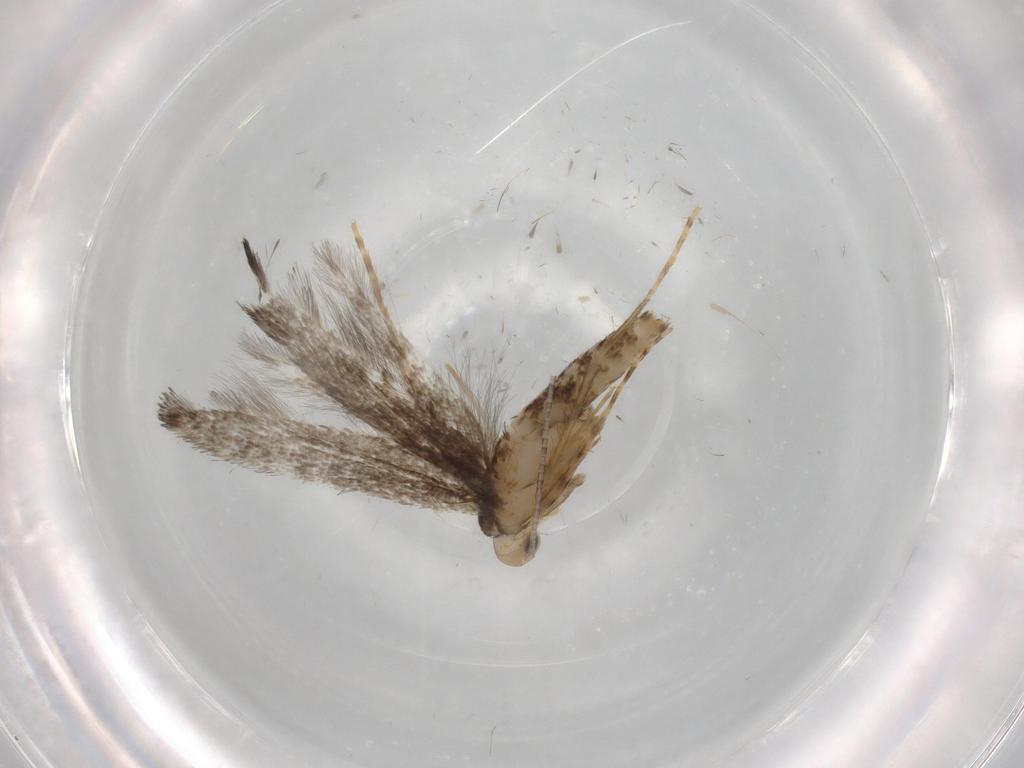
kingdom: Animalia
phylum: Arthropoda
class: Insecta
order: Lepidoptera
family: Gracillariidae
